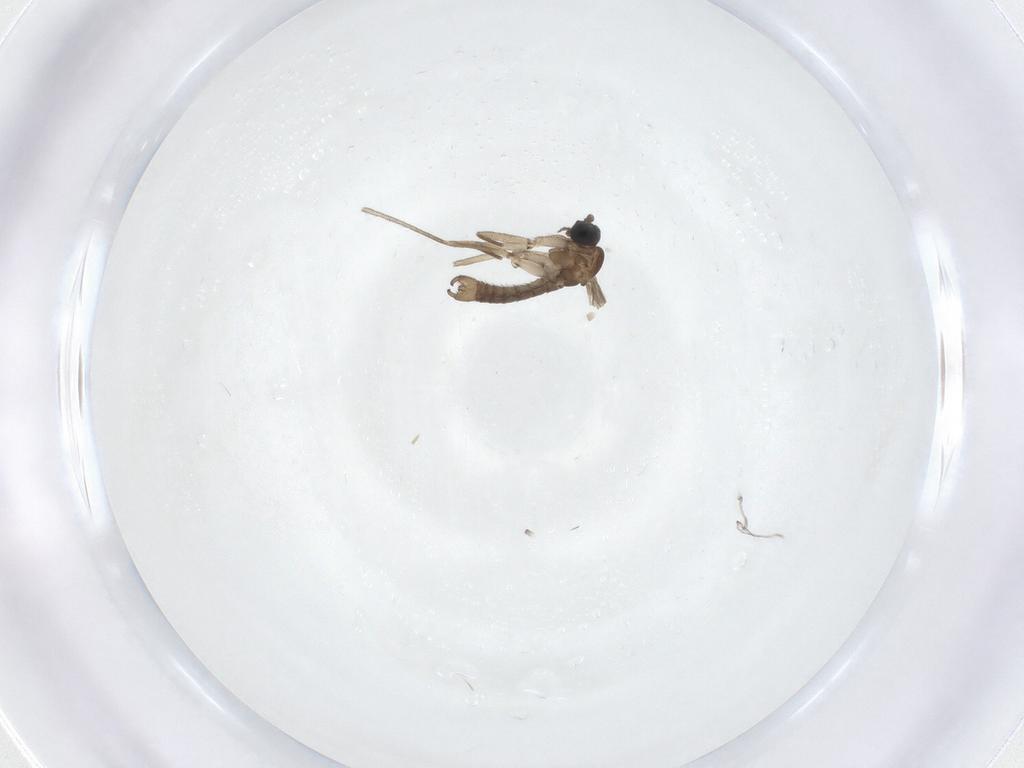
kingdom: Animalia
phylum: Arthropoda
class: Insecta
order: Diptera
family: Sciaridae
